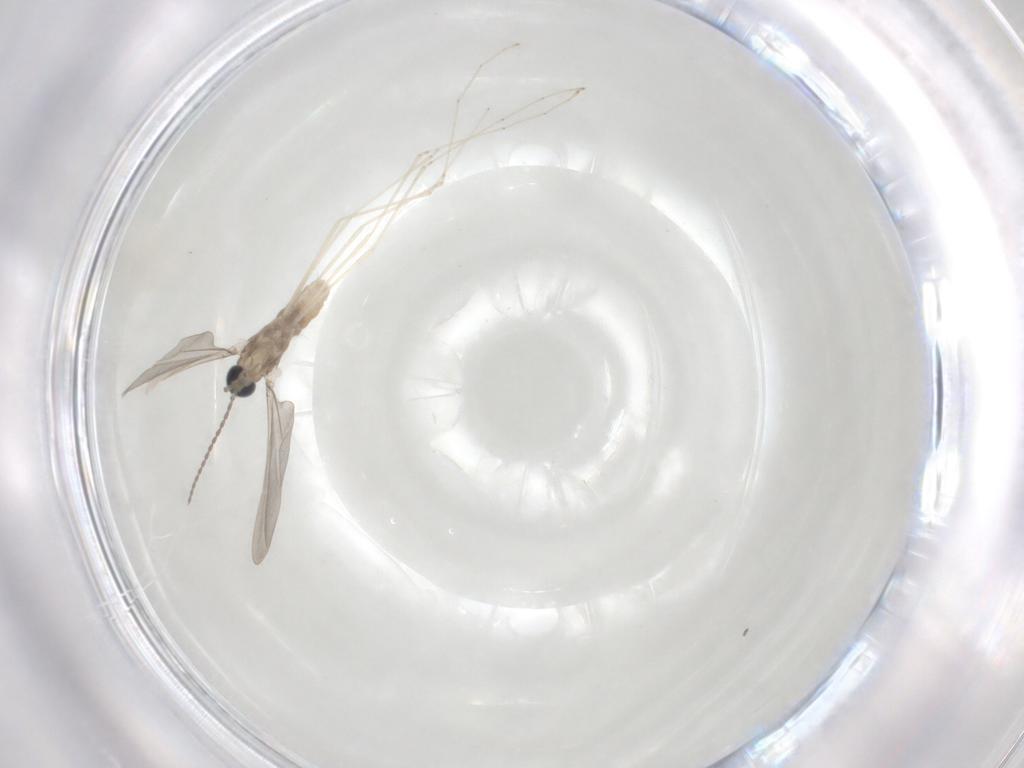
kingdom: Animalia
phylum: Arthropoda
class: Insecta
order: Diptera
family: Cecidomyiidae
